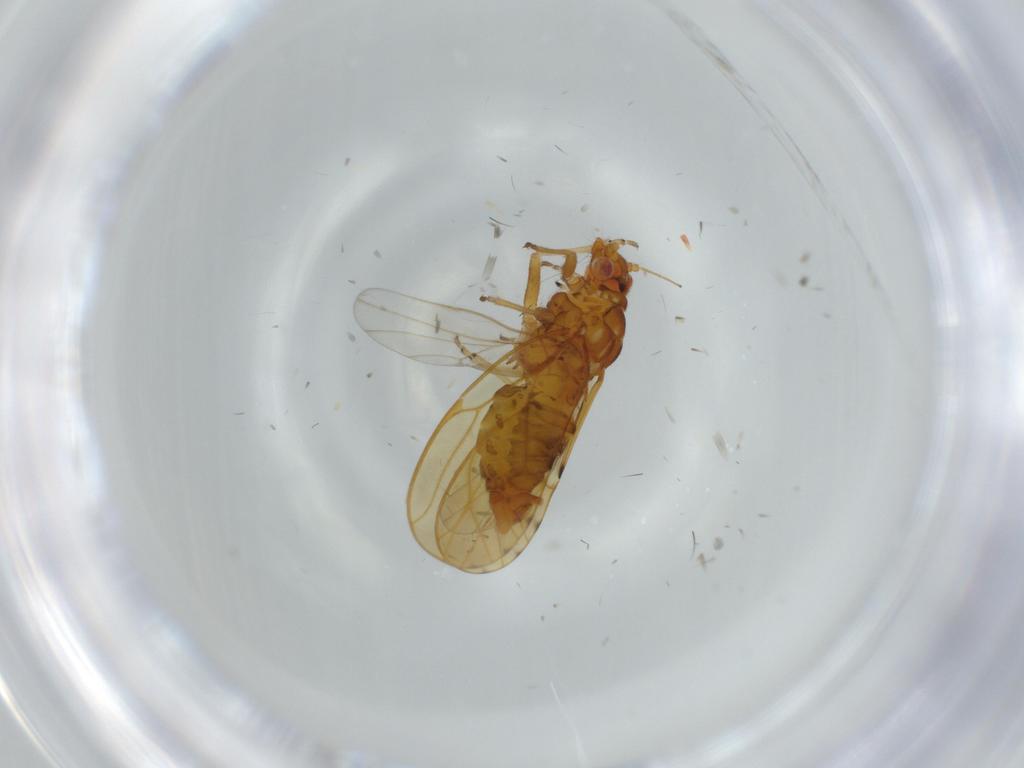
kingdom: Animalia
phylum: Arthropoda
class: Insecta
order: Hemiptera
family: Psylloidea_incertae_sedis
